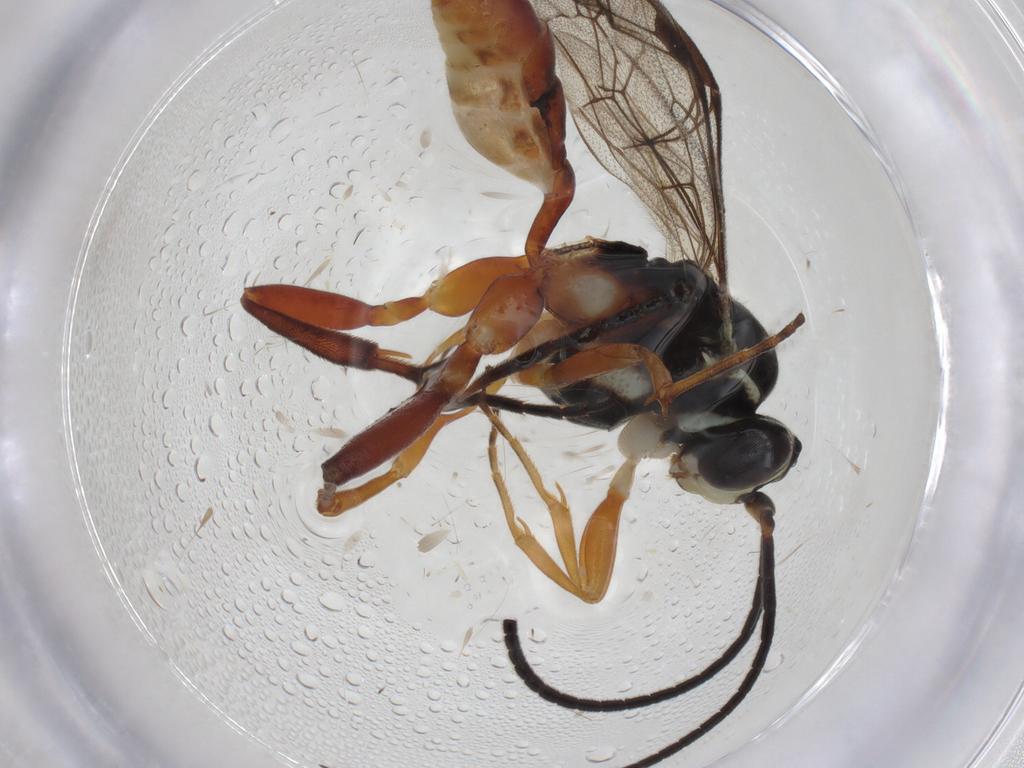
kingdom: Animalia
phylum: Arthropoda
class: Insecta
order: Hymenoptera
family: Ichneumonidae
